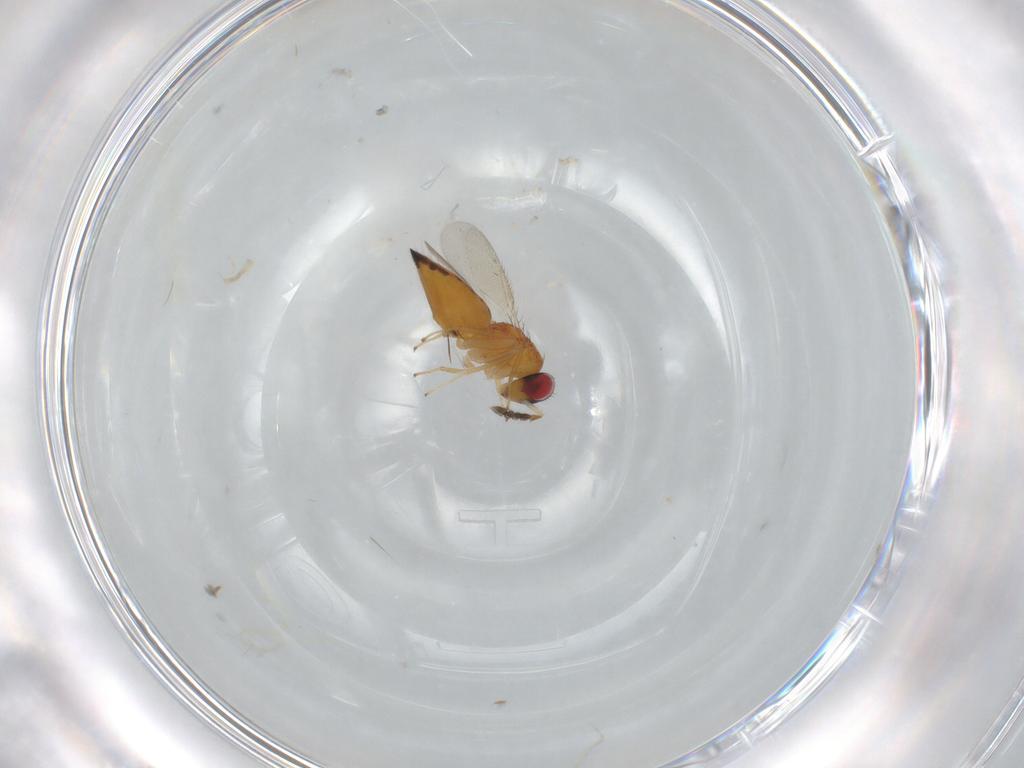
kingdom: Animalia
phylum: Arthropoda
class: Insecta
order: Hymenoptera
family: Eulophidae
